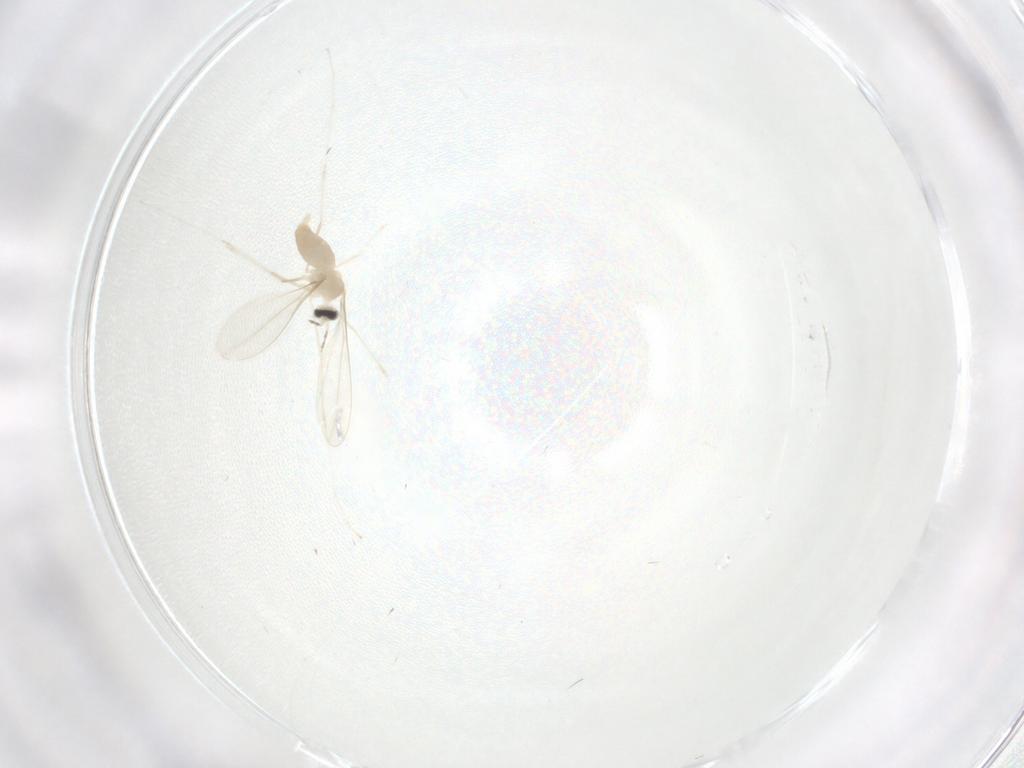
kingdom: Animalia
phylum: Arthropoda
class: Insecta
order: Diptera
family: Cecidomyiidae
